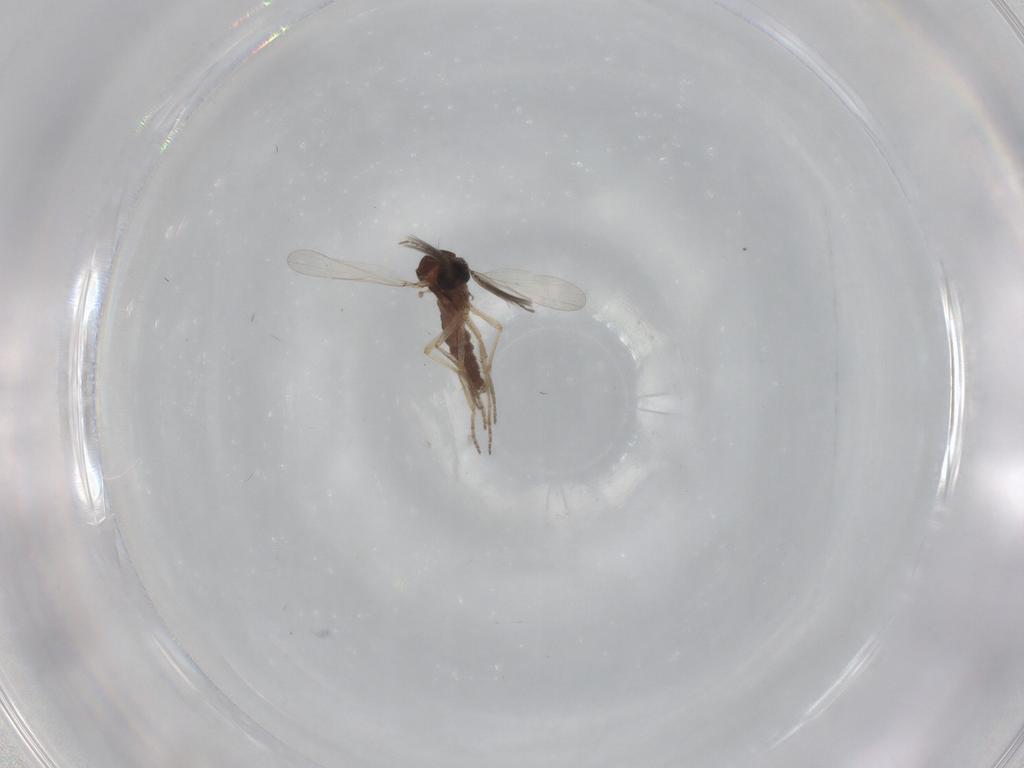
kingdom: Animalia
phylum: Arthropoda
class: Insecta
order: Diptera
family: Ceratopogonidae
